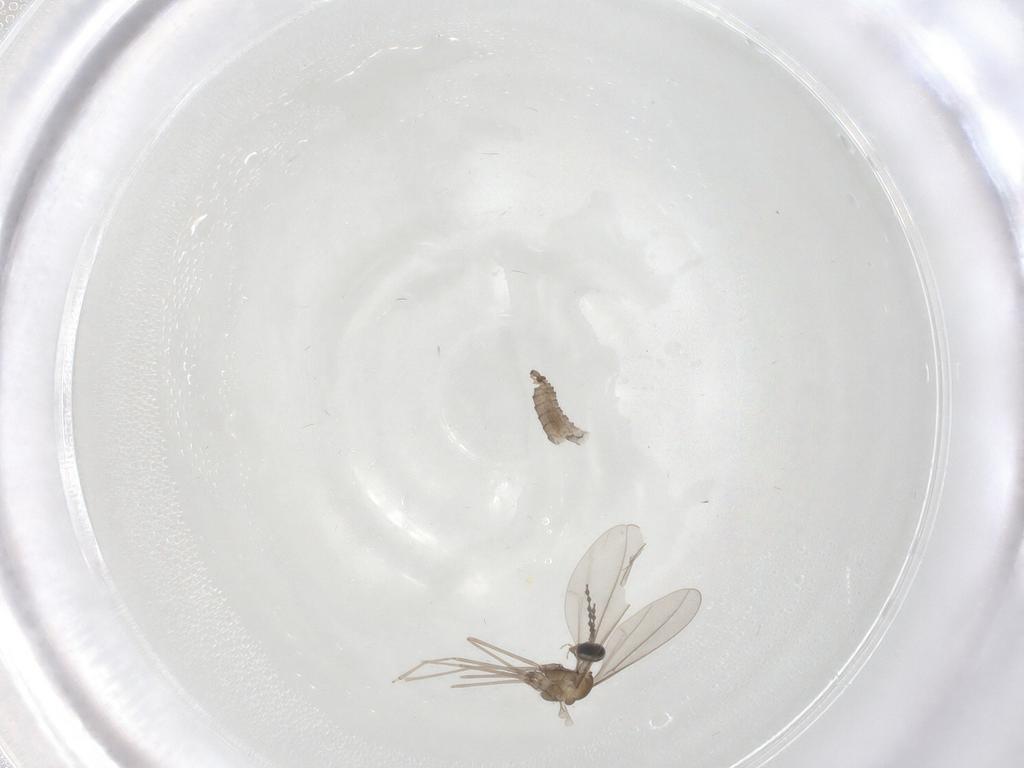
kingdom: Animalia
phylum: Arthropoda
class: Insecta
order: Diptera
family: Cecidomyiidae
